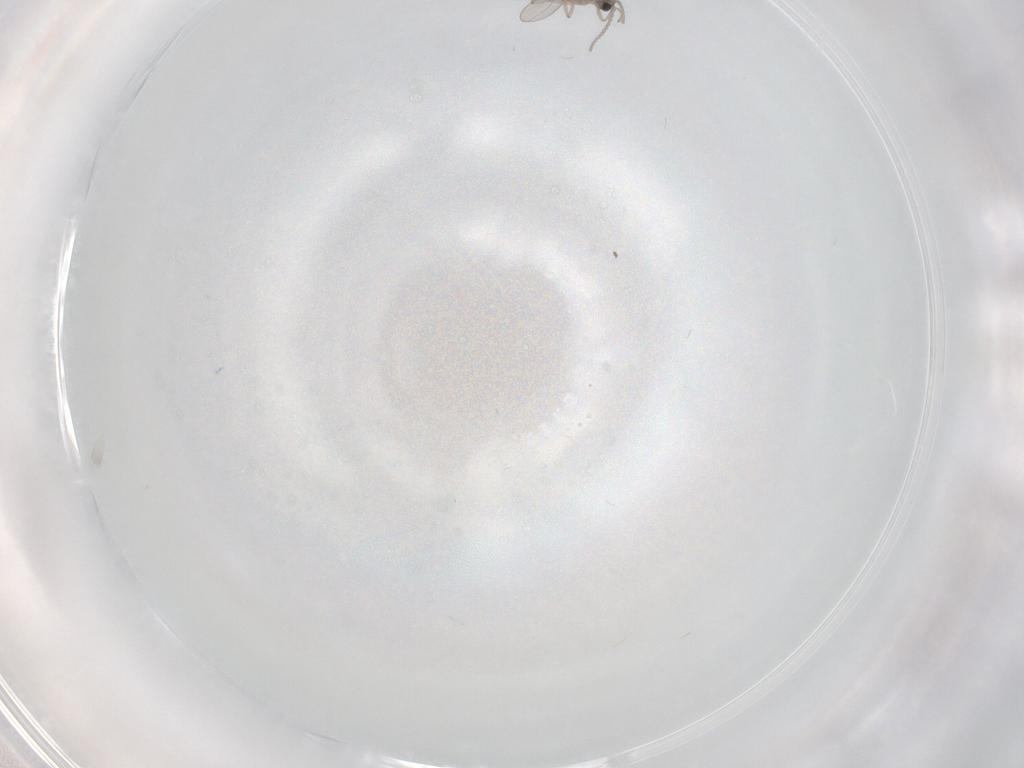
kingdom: Animalia
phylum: Arthropoda
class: Insecta
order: Diptera
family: Cecidomyiidae
